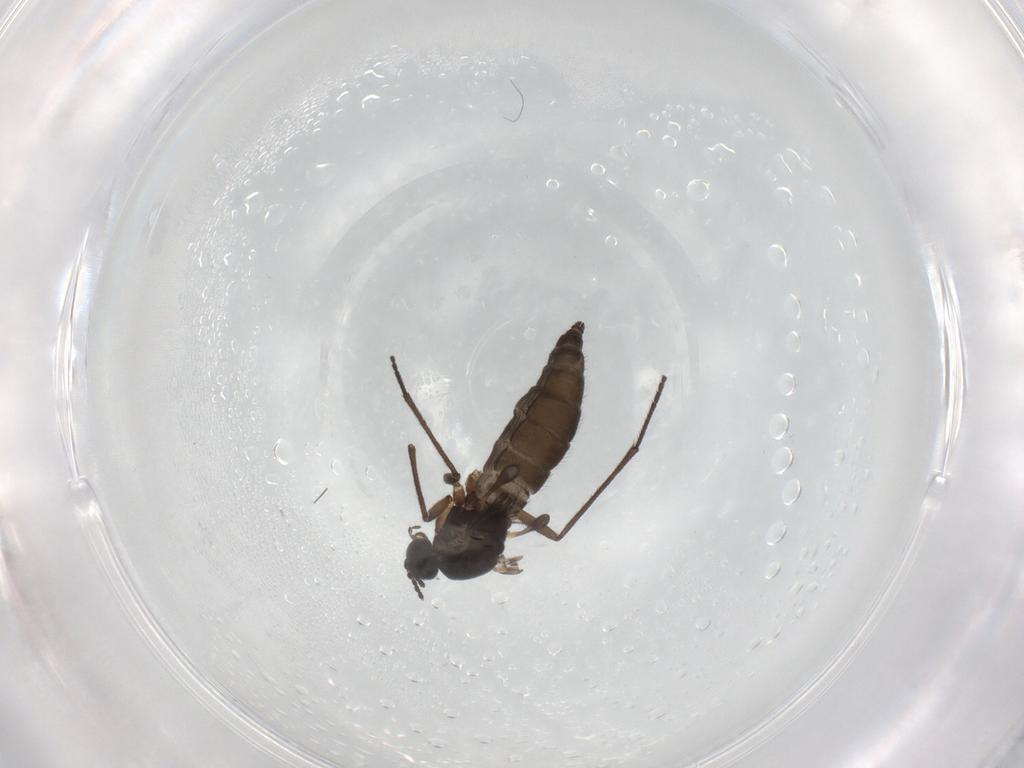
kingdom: Animalia
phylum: Arthropoda
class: Insecta
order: Diptera
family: Sciaridae
